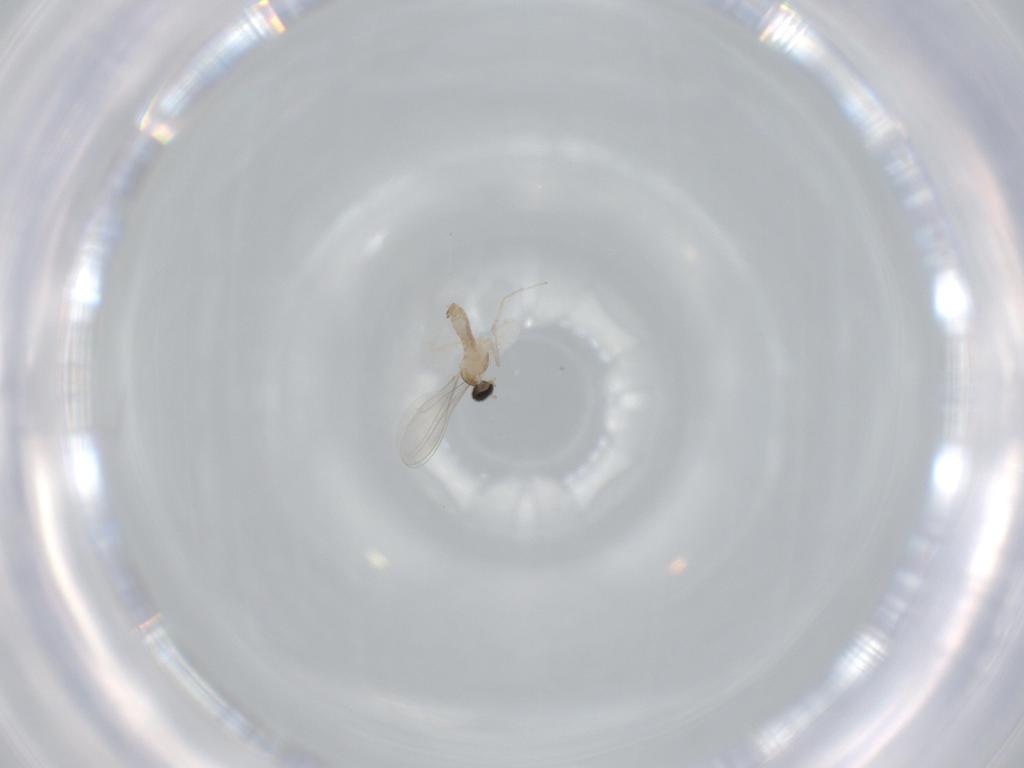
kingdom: Animalia
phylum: Arthropoda
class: Insecta
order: Diptera
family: Cecidomyiidae
